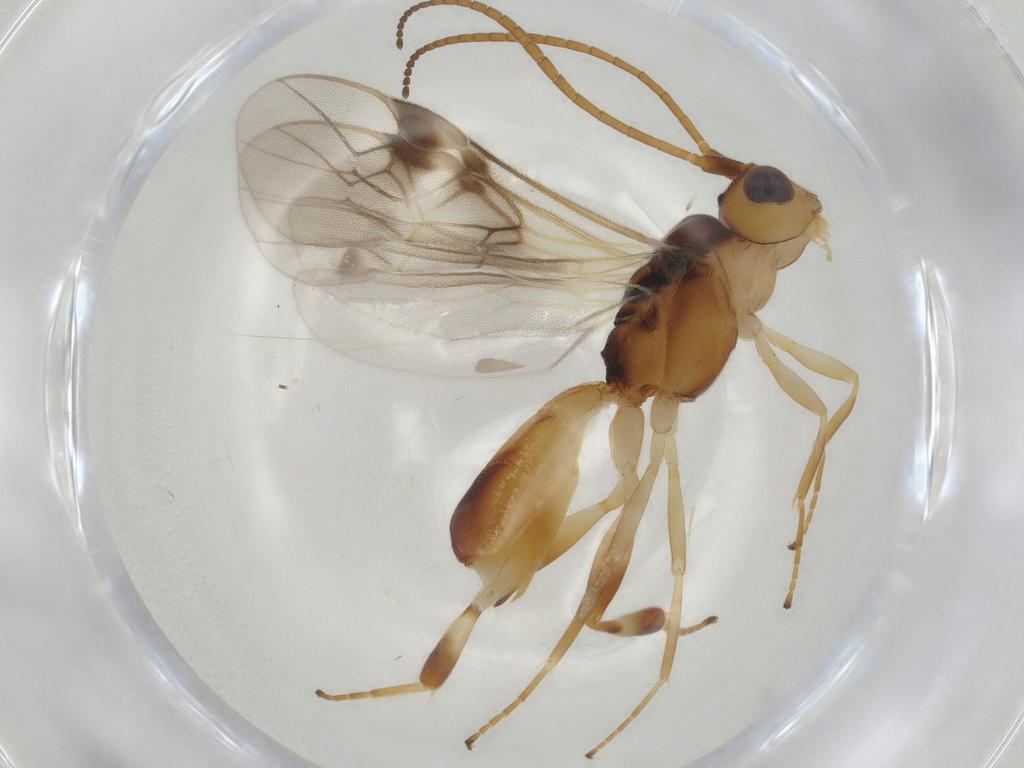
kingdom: Animalia
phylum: Arthropoda
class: Insecta
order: Hymenoptera
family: Braconidae
